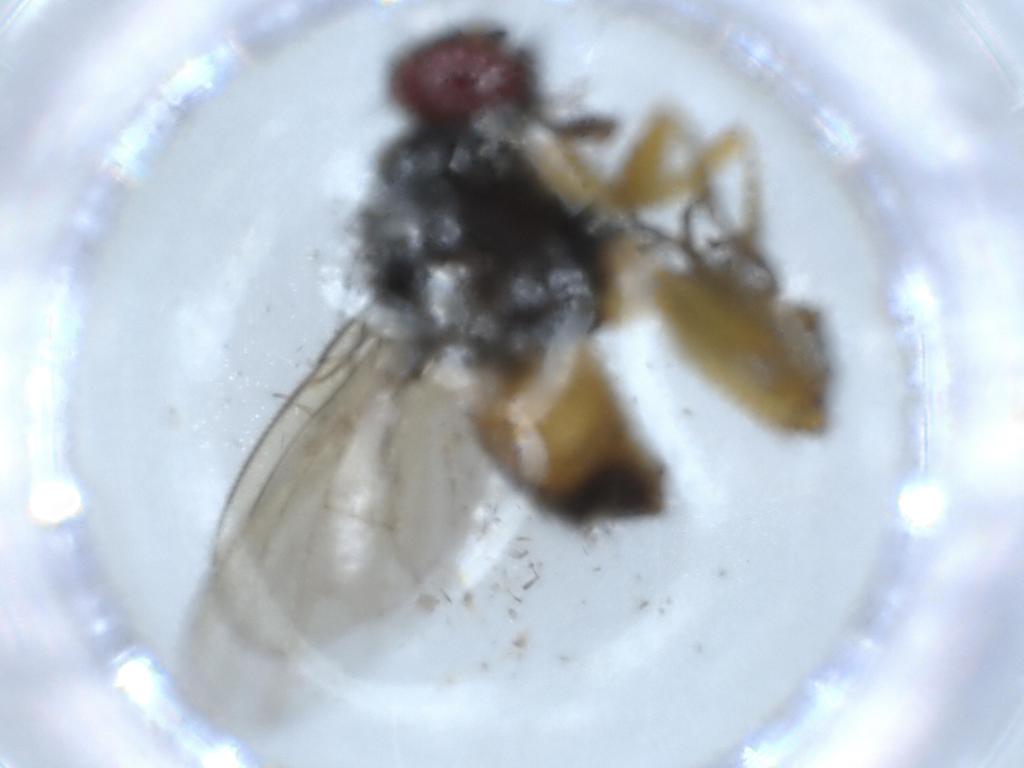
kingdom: Animalia
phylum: Arthropoda
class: Insecta
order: Diptera
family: Muscidae
